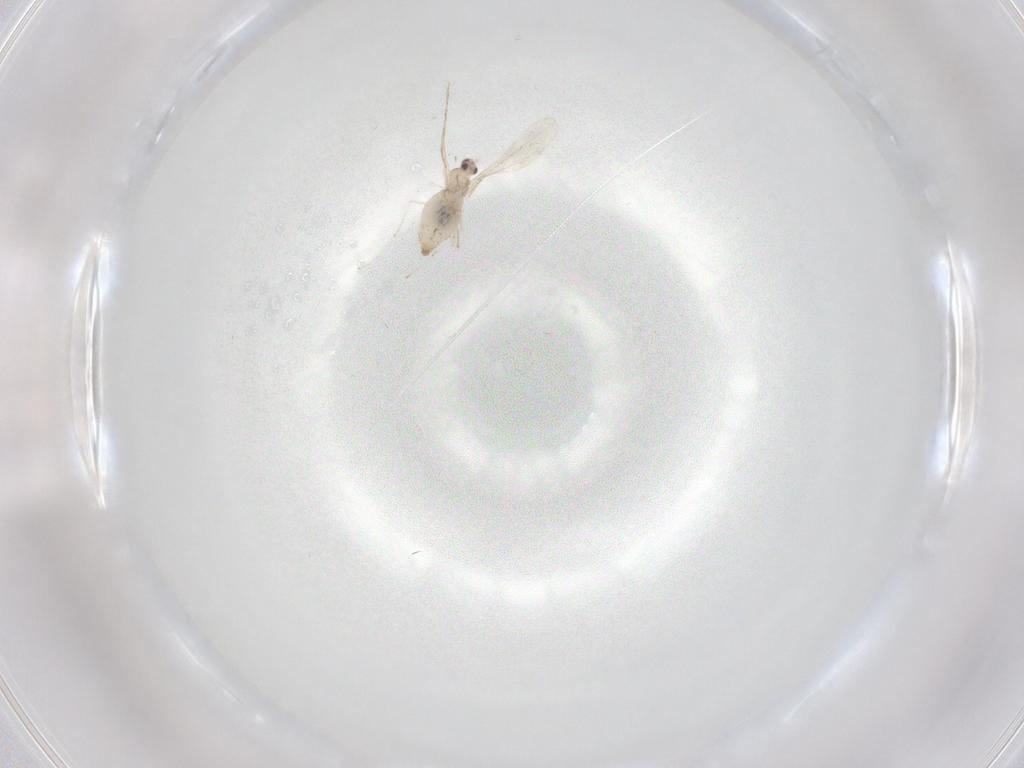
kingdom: Animalia
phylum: Arthropoda
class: Insecta
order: Diptera
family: Cecidomyiidae
